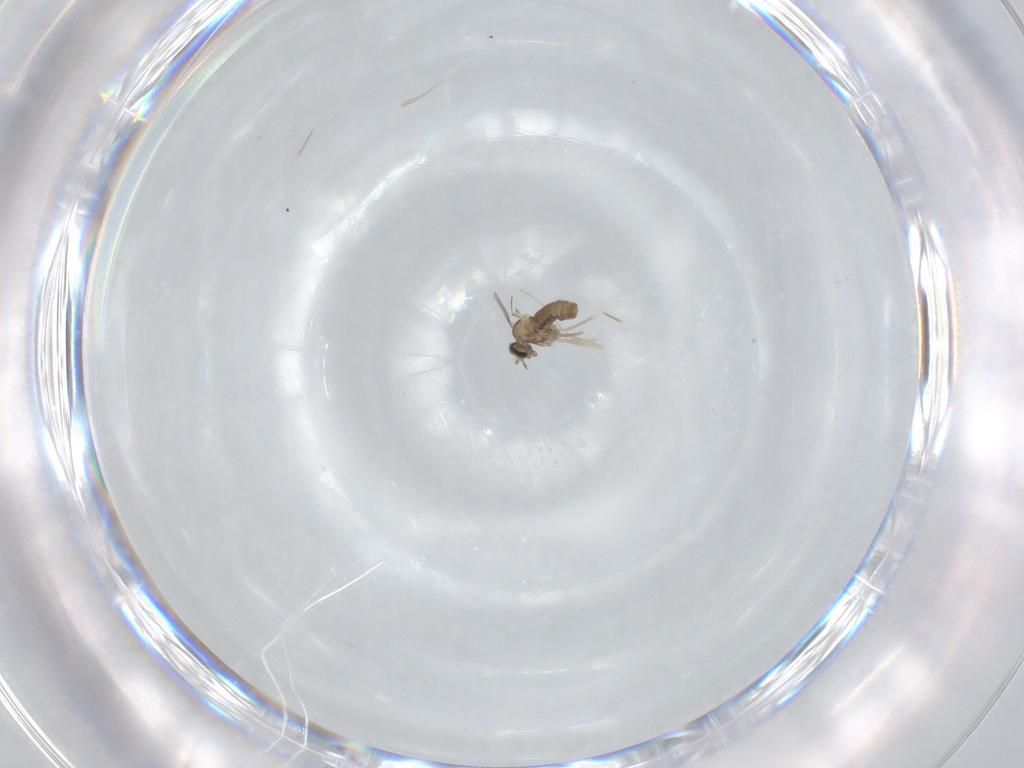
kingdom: Animalia
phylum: Arthropoda
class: Insecta
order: Diptera
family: Cecidomyiidae
